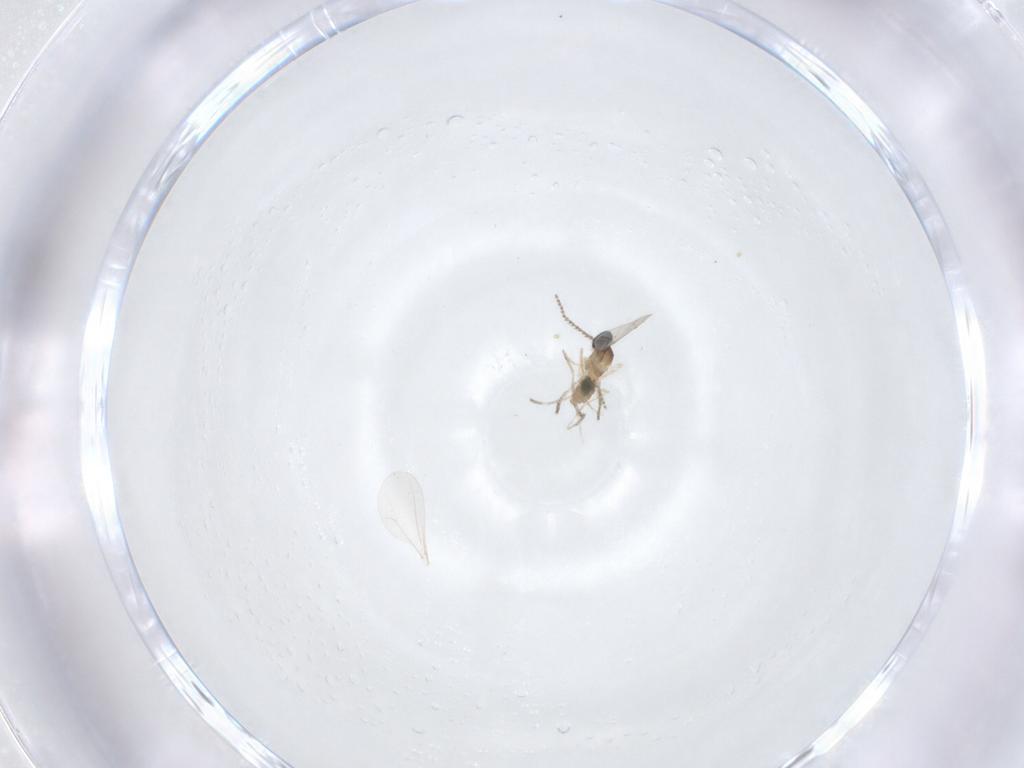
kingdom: Animalia
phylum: Arthropoda
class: Insecta
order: Diptera
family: Cecidomyiidae
